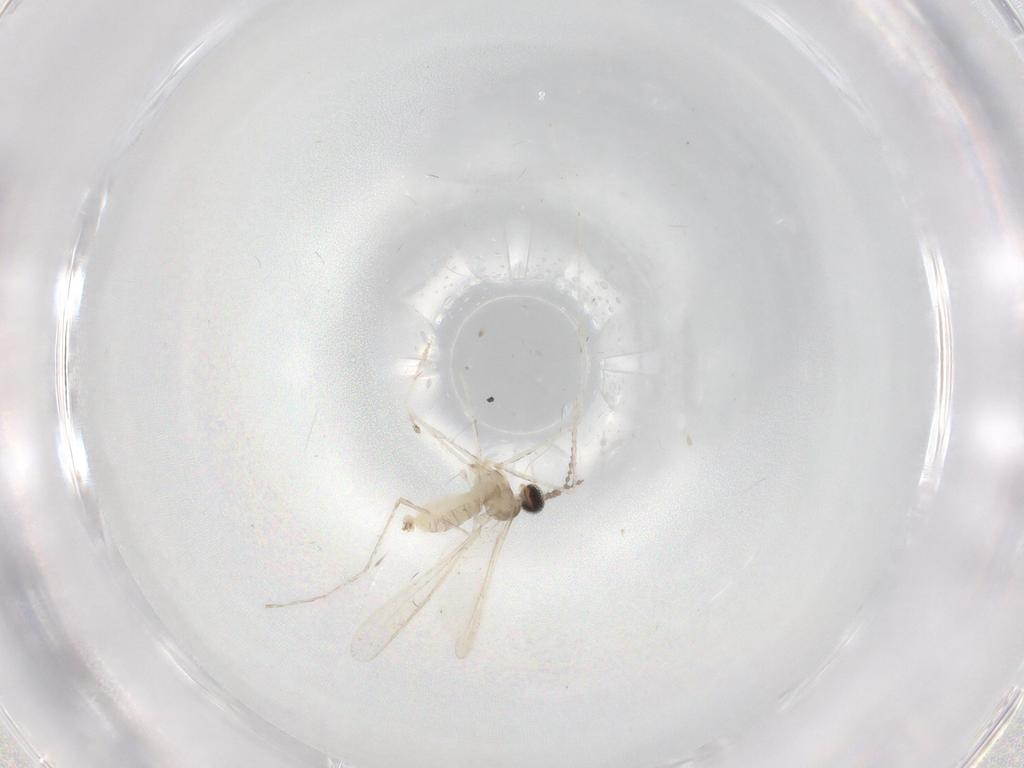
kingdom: Animalia
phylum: Arthropoda
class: Insecta
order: Diptera
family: Cecidomyiidae
